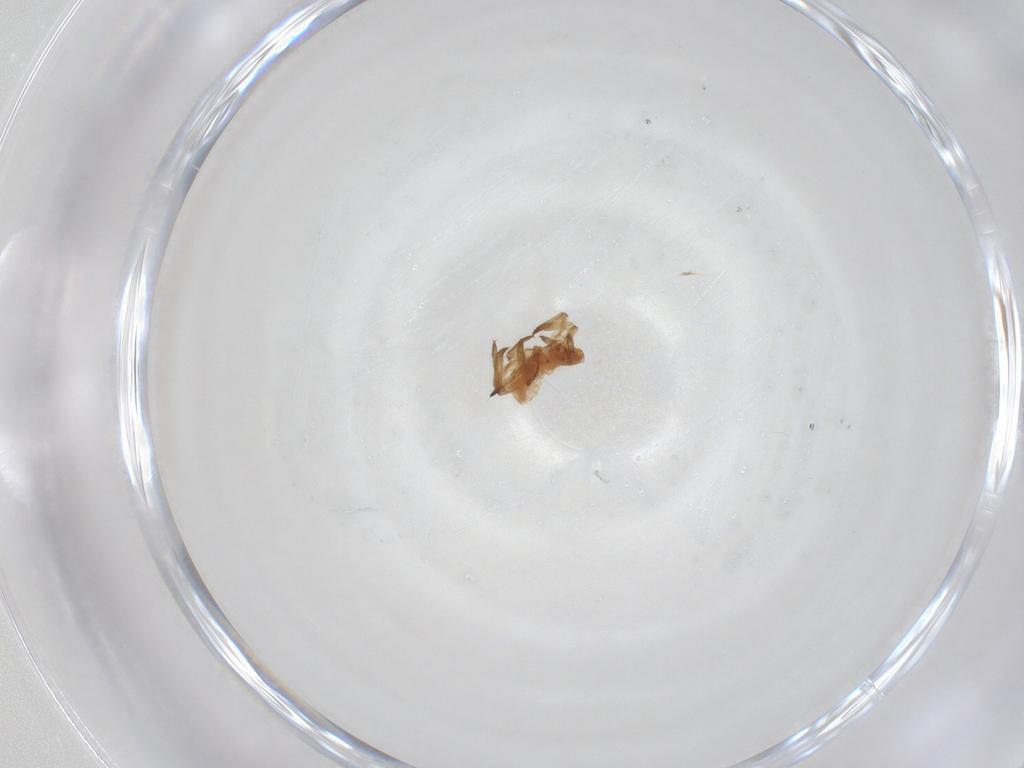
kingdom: Animalia
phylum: Arthropoda
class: Insecta
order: Hemiptera
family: Aphididae
